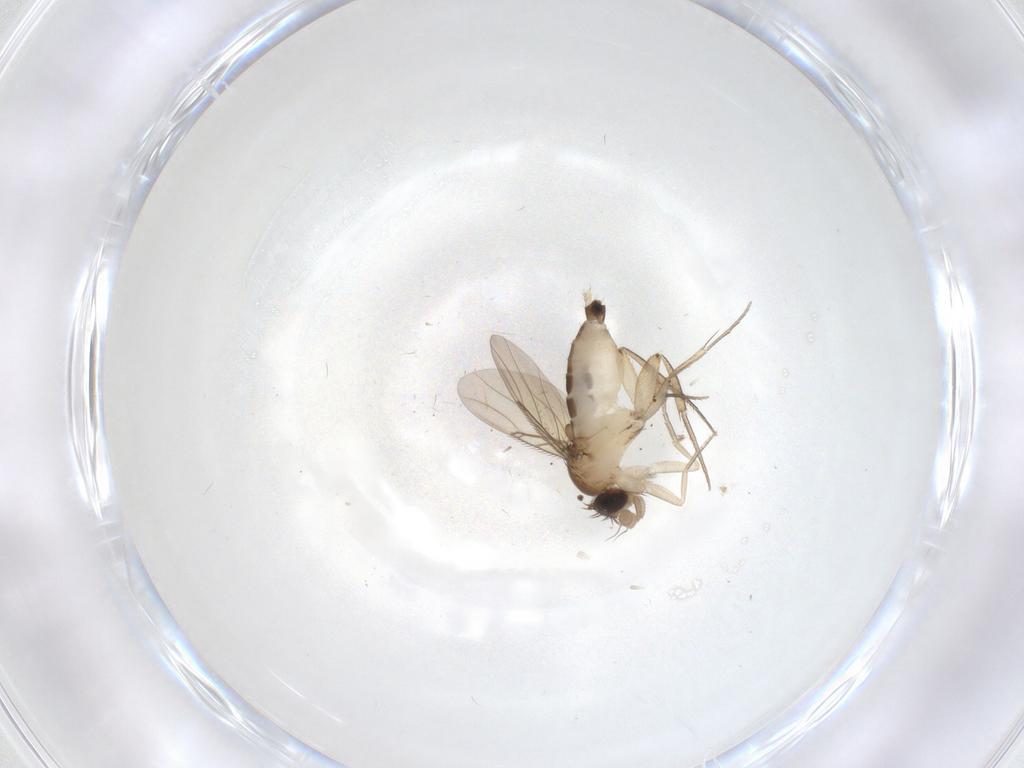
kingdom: Animalia
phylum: Arthropoda
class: Insecta
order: Diptera
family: Phoridae
